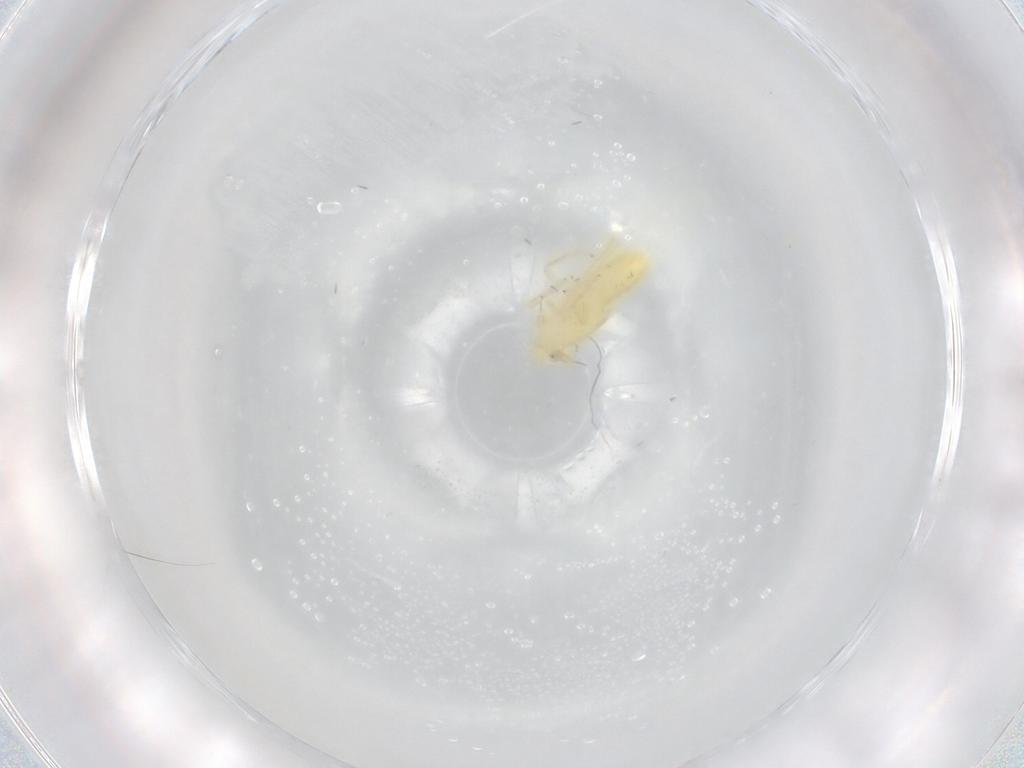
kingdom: Animalia
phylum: Arthropoda
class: Insecta
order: Hemiptera
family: Delphacidae
